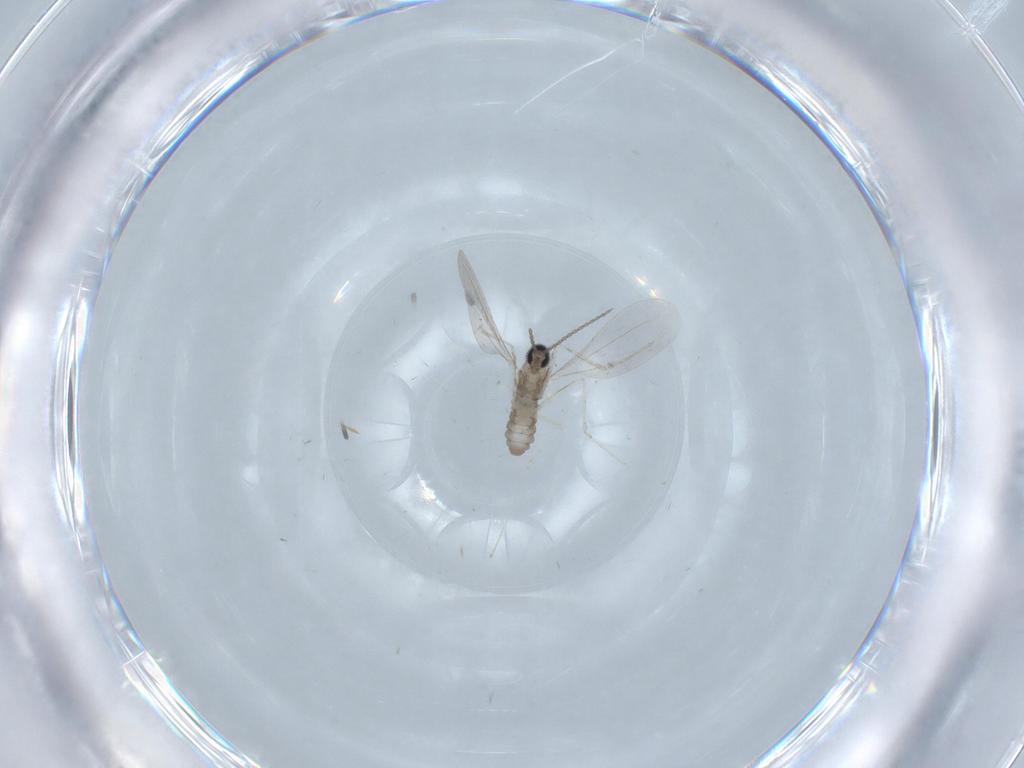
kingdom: Animalia
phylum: Arthropoda
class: Insecta
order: Diptera
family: Cecidomyiidae
